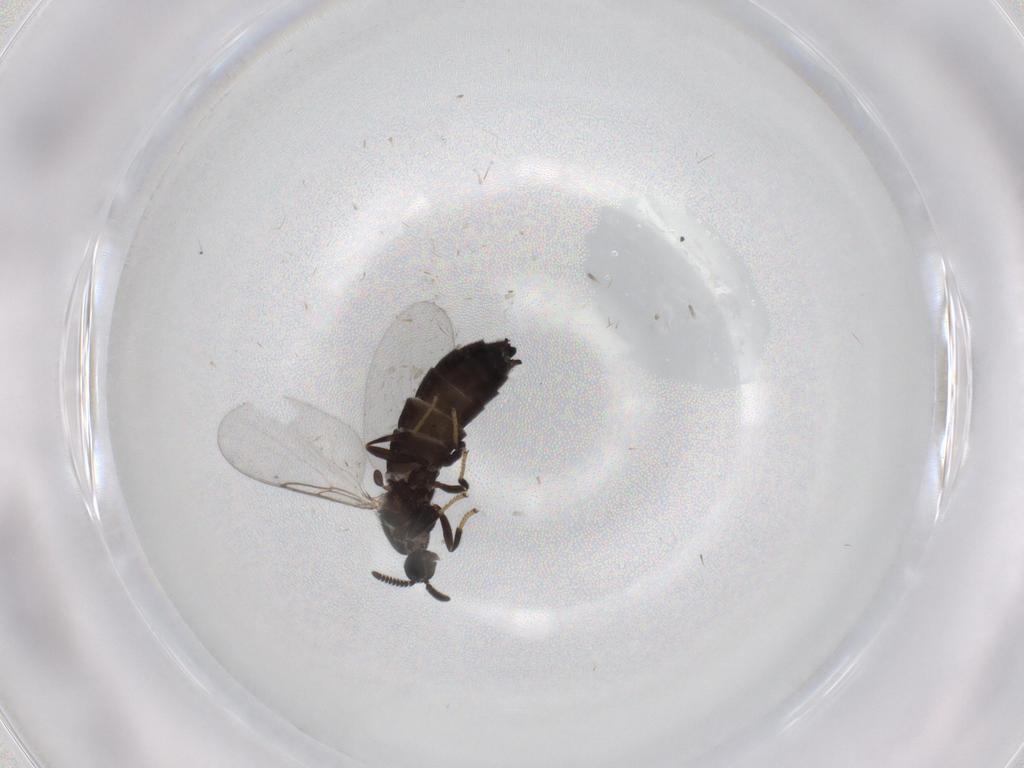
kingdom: Animalia
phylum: Arthropoda
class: Insecta
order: Diptera
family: Scatopsidae
